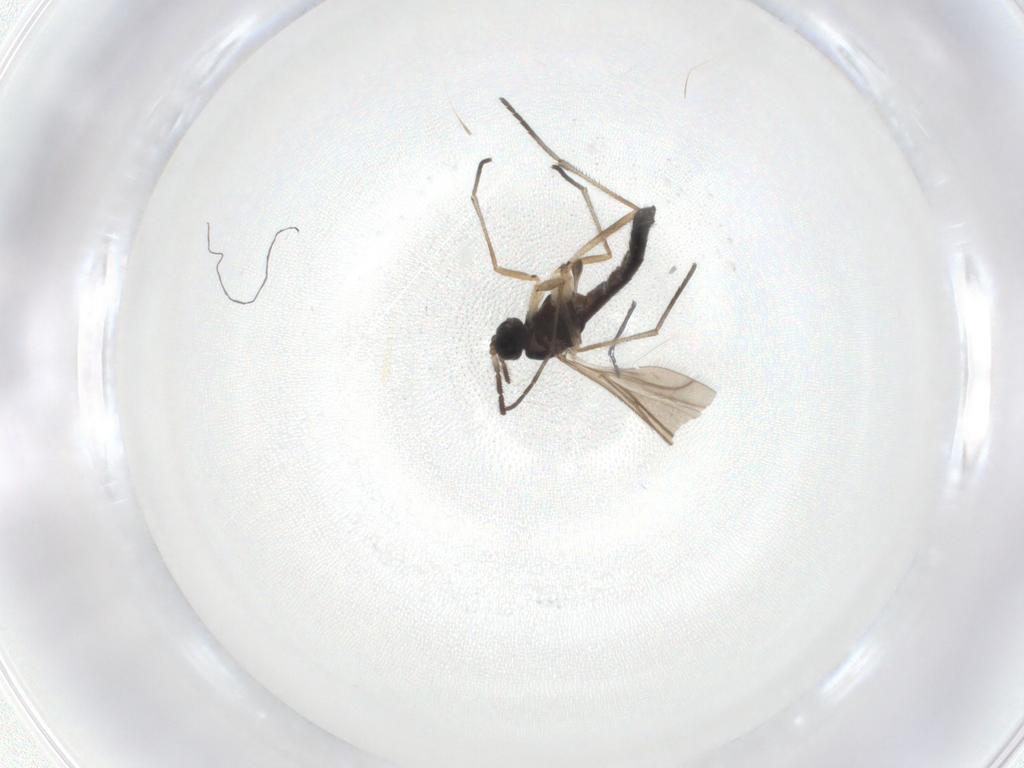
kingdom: Animalia
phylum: Arthropoda
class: Insecta
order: Diptera
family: Sciaridae
